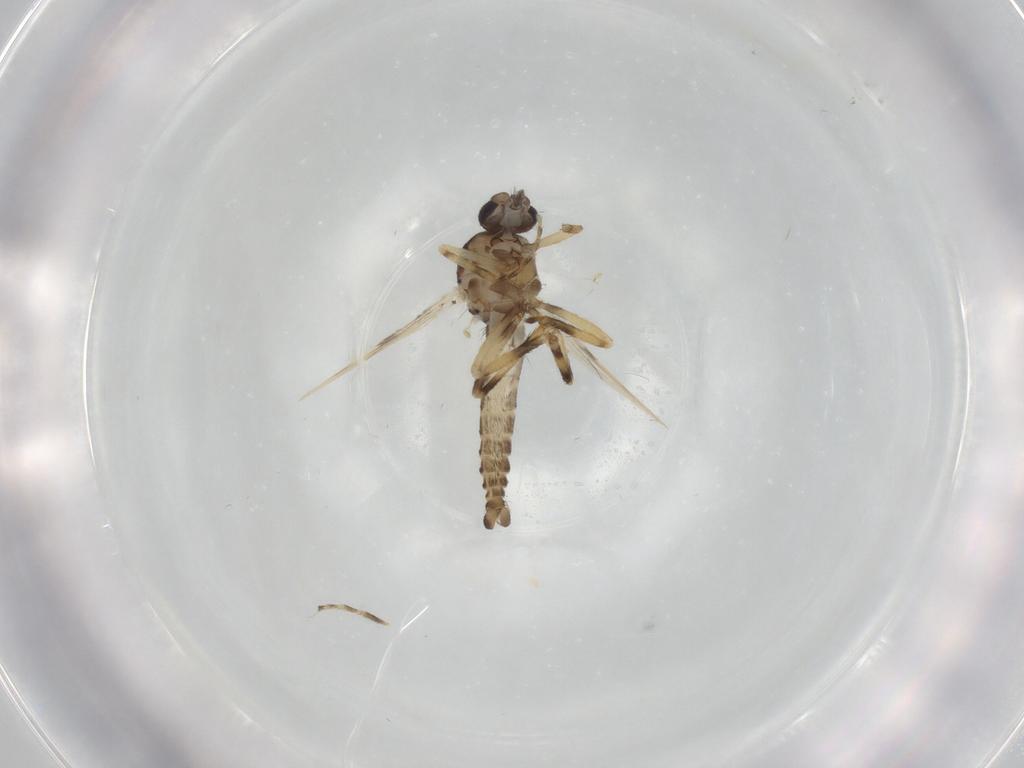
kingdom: Animalia
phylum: Arthropoda
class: Insecta
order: Diptera
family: Ceratopogonidae
